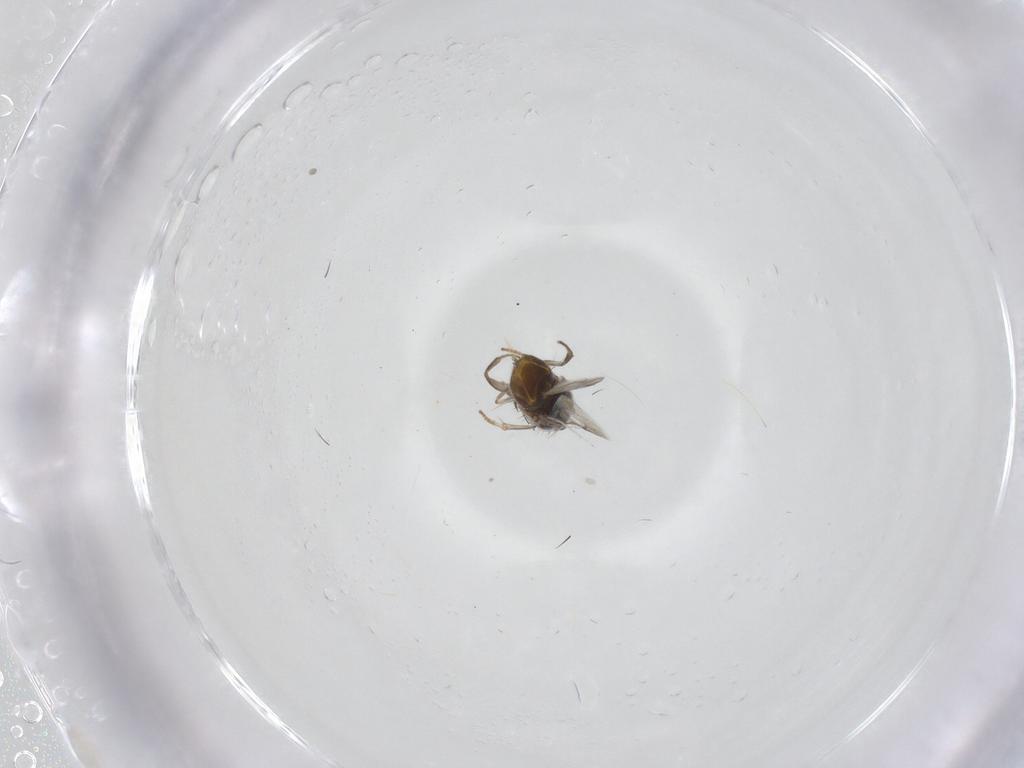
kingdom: Animalia
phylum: Arthropoda
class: Insecta
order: Hymenoptera
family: Encyrtidae
